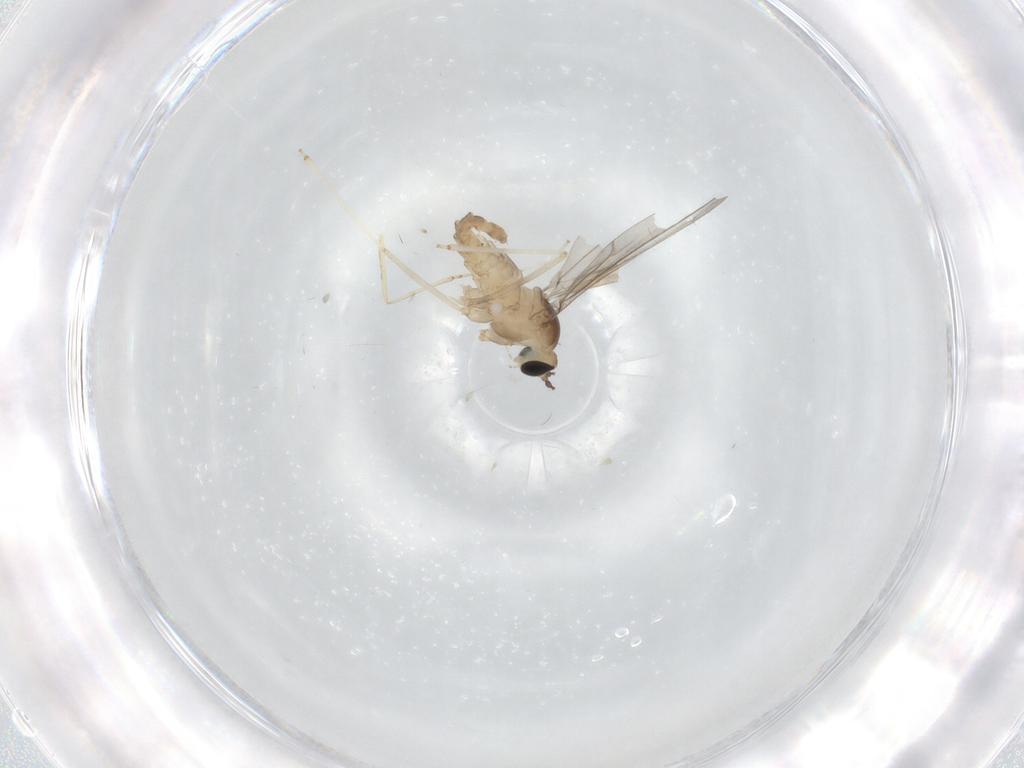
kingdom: Animalia
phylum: Arthropoda
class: Insecta
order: Diptera
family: Cecidomyiidae
